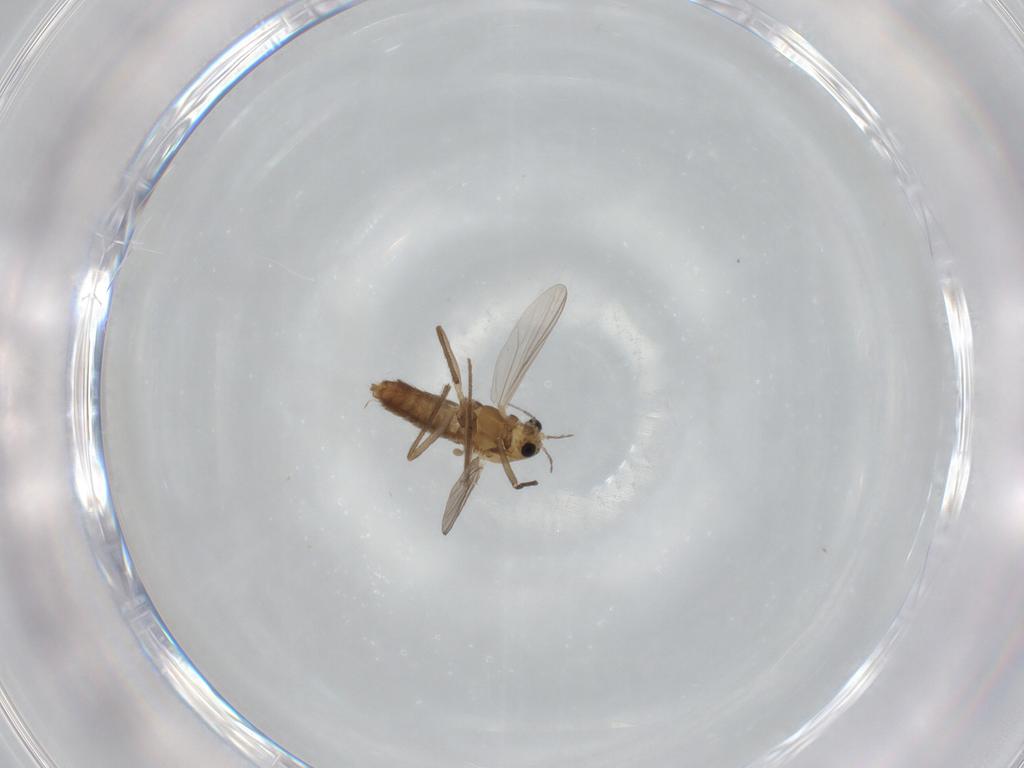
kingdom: Animalia
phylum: Arthropoda
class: Insecta
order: Diptera
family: Chironomidae
